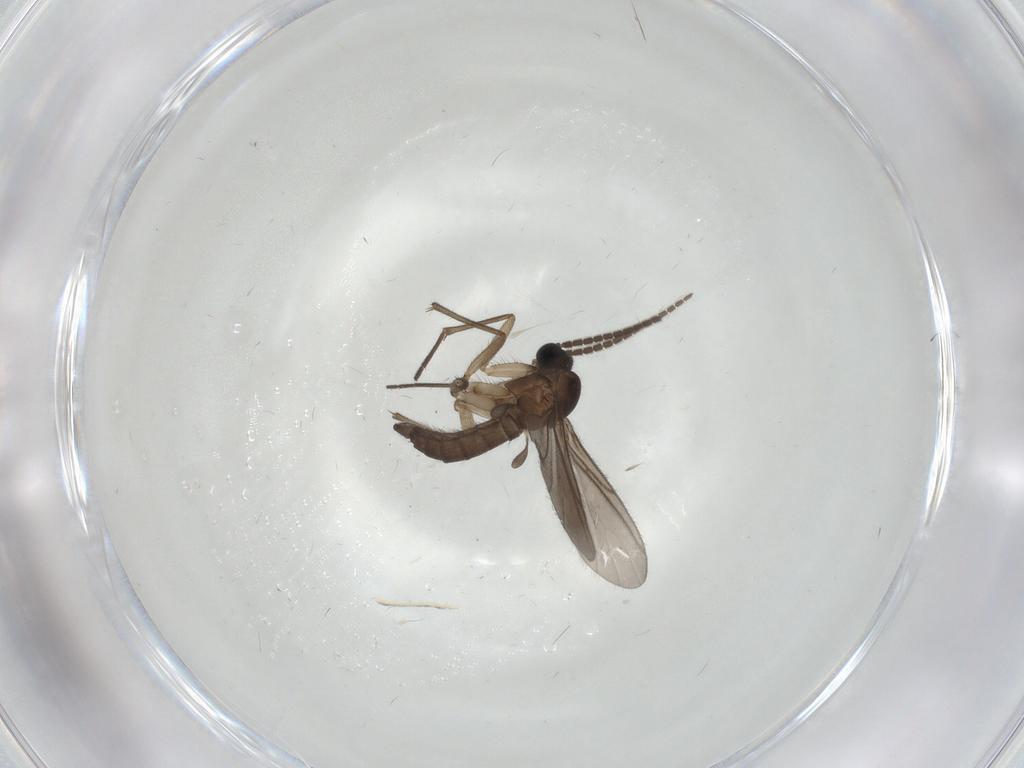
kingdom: Animalia
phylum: Arthropoda
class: Insecta
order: Diptera
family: Sciaridae
